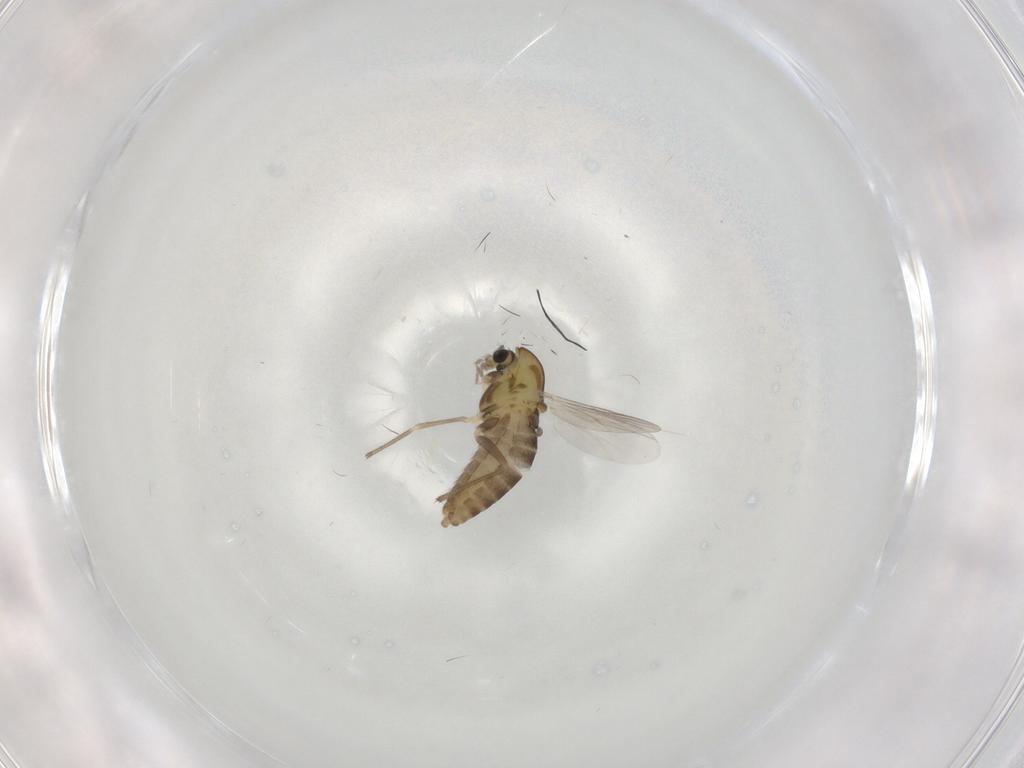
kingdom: Animalia
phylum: Arthropoda
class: Insecta
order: Diptera
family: Chironomidae
